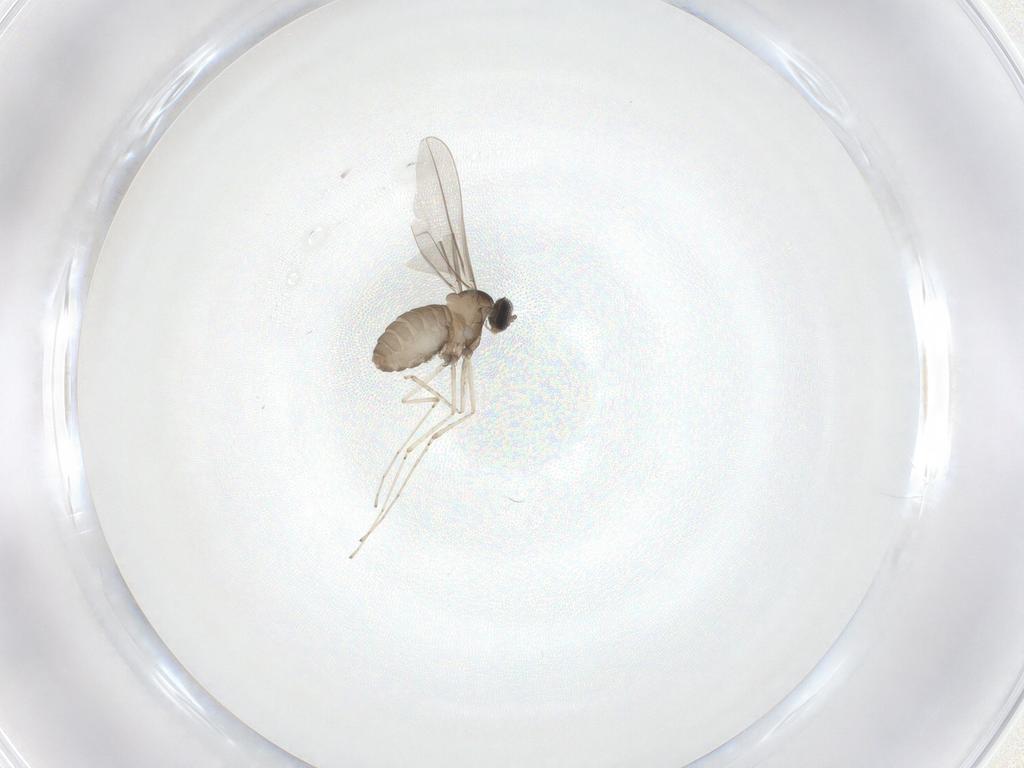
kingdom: Animalia
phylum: Arthropoda
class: Insecta
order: Diptera
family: Cecidomyiidae
